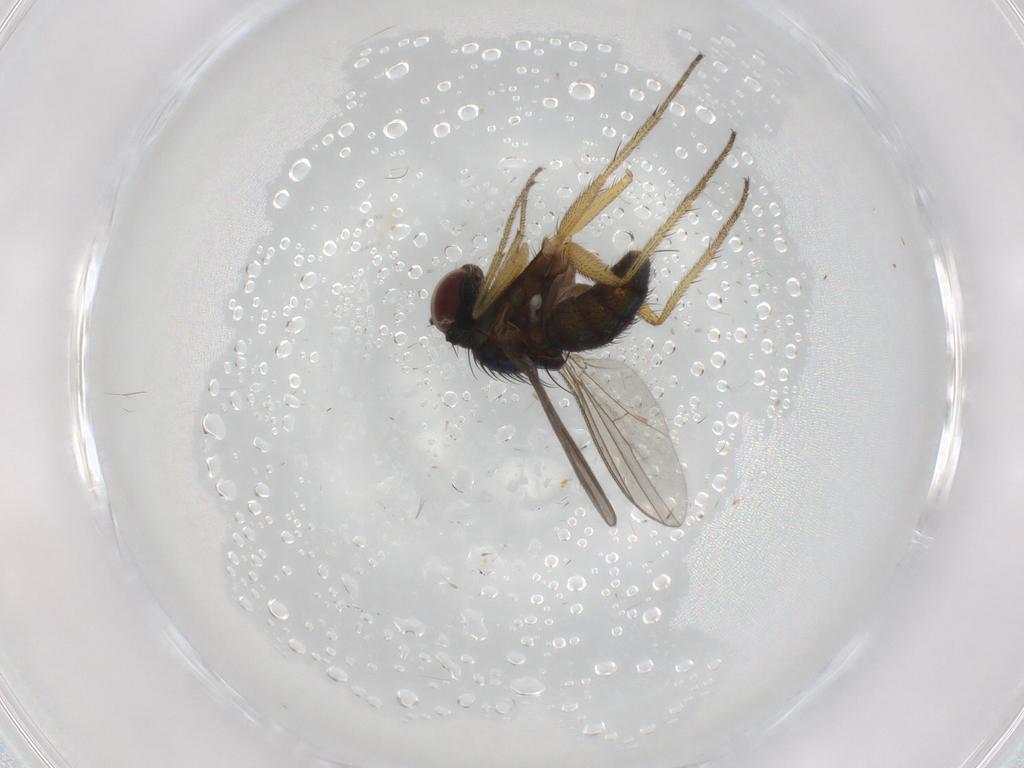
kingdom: Animalia
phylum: Arthropoda
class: Insecta
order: Diptera
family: Dolichopodidae
